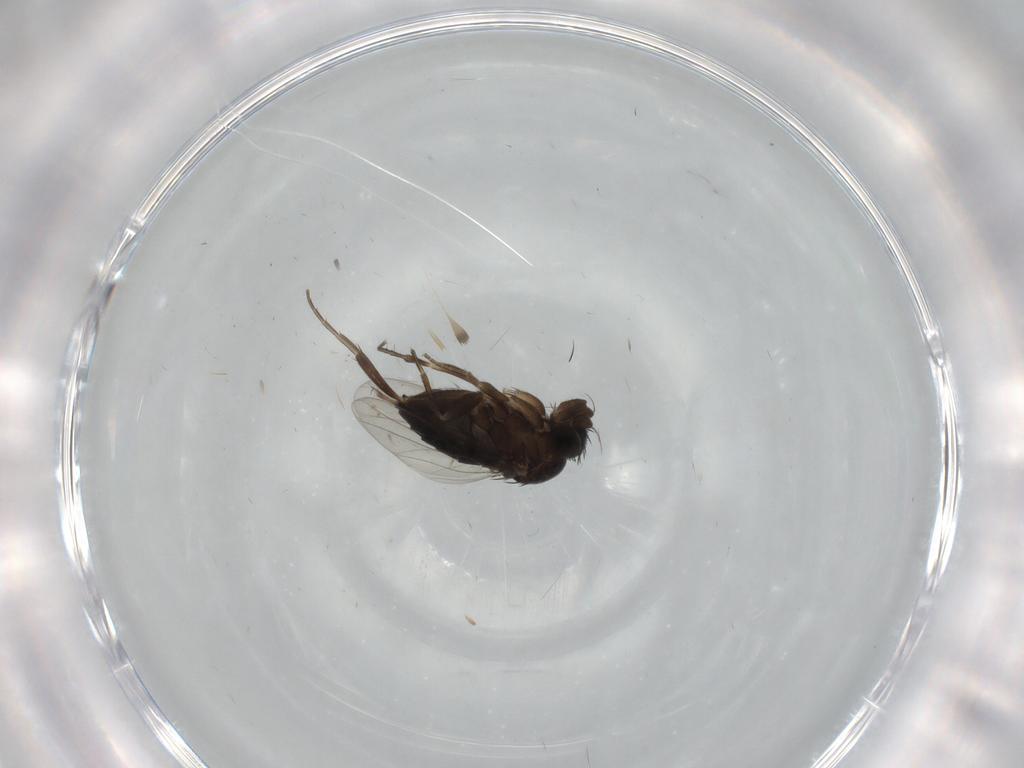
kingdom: Animalia
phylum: Arthropoda
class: Insecta
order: Diptera
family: Phoridae
